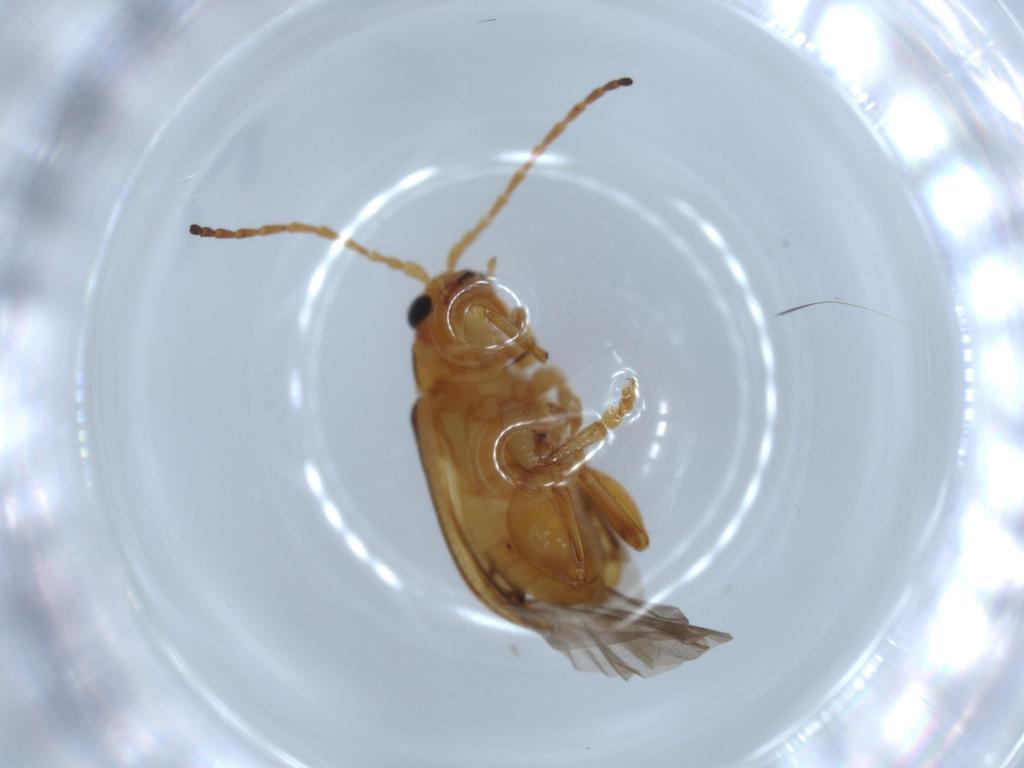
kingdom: Animalia
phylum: Arthropoda
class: Insecta
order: Coleoptera
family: Chrysomelidae
